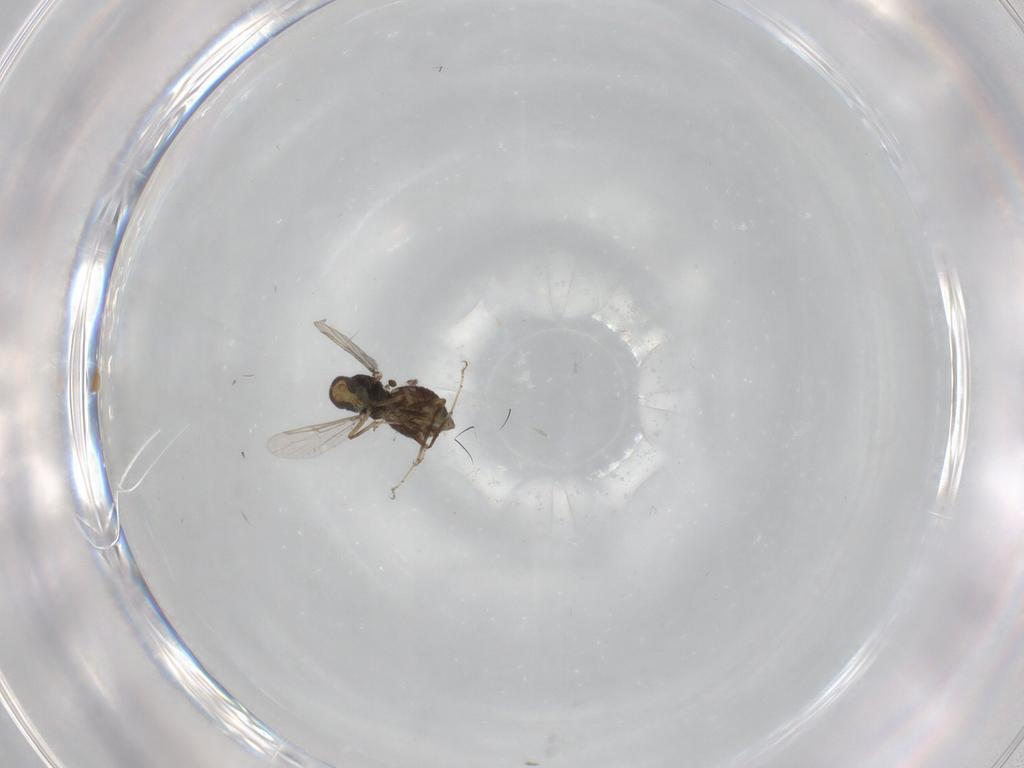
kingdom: Animalia
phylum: Arthropoda
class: Insecta
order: Diptera
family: Ceratopogonidae
